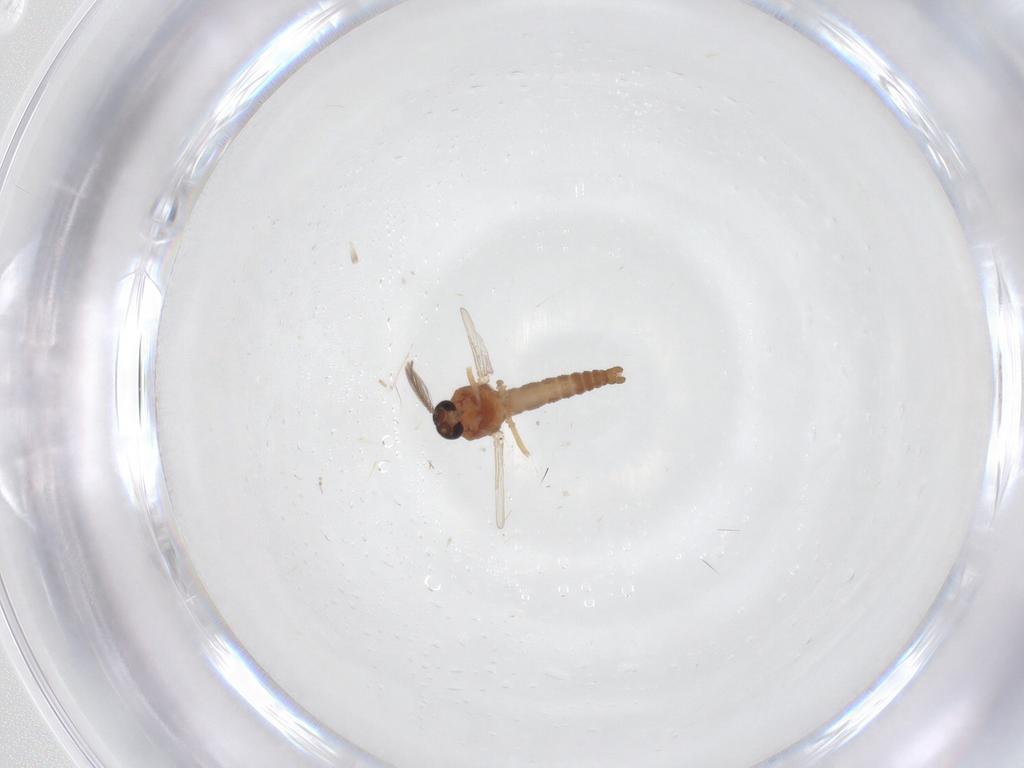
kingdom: Animalia
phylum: Arthropoda
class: Insecta
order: Diptera
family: Ceratopogonidae
